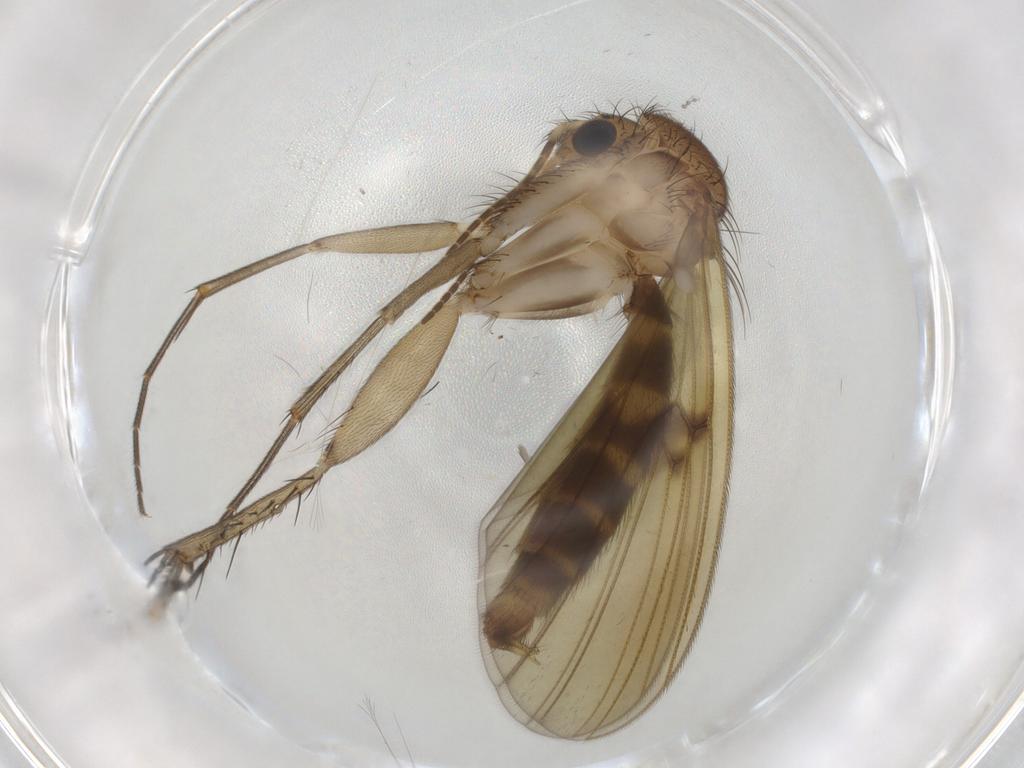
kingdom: Animalia
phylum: Arthropoda
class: Insecta
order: Diptera
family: Mycetophilidae
